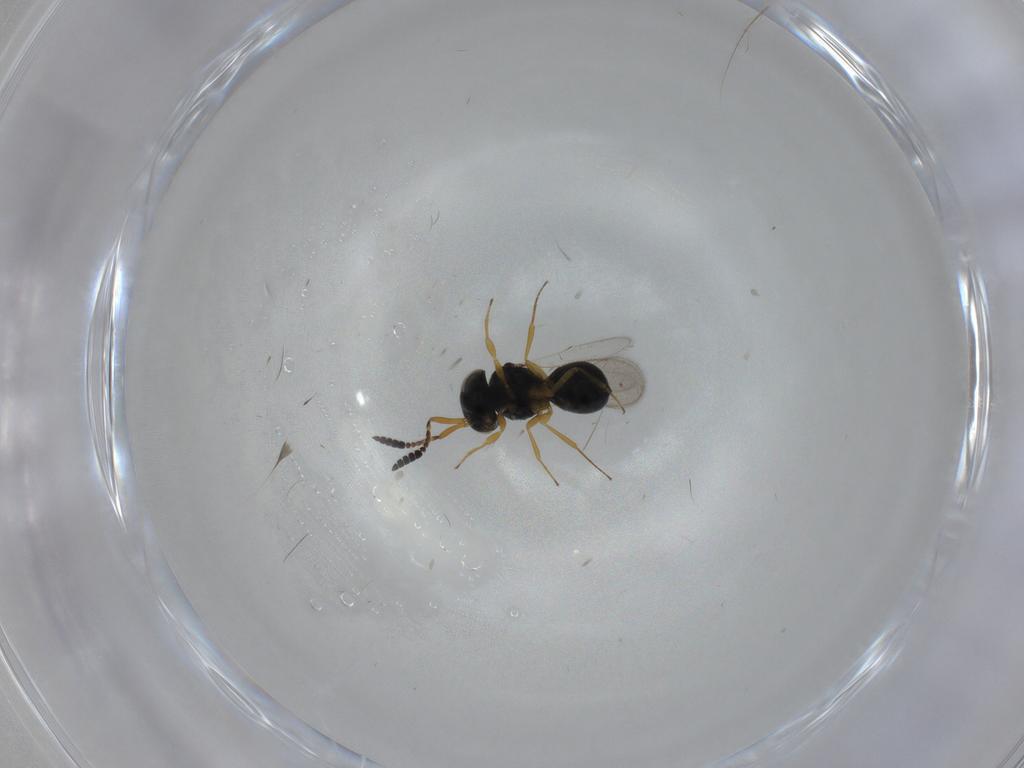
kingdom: Animalia
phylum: Arthropoda
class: Insecta
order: Hymenoptera
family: Scelionidae
